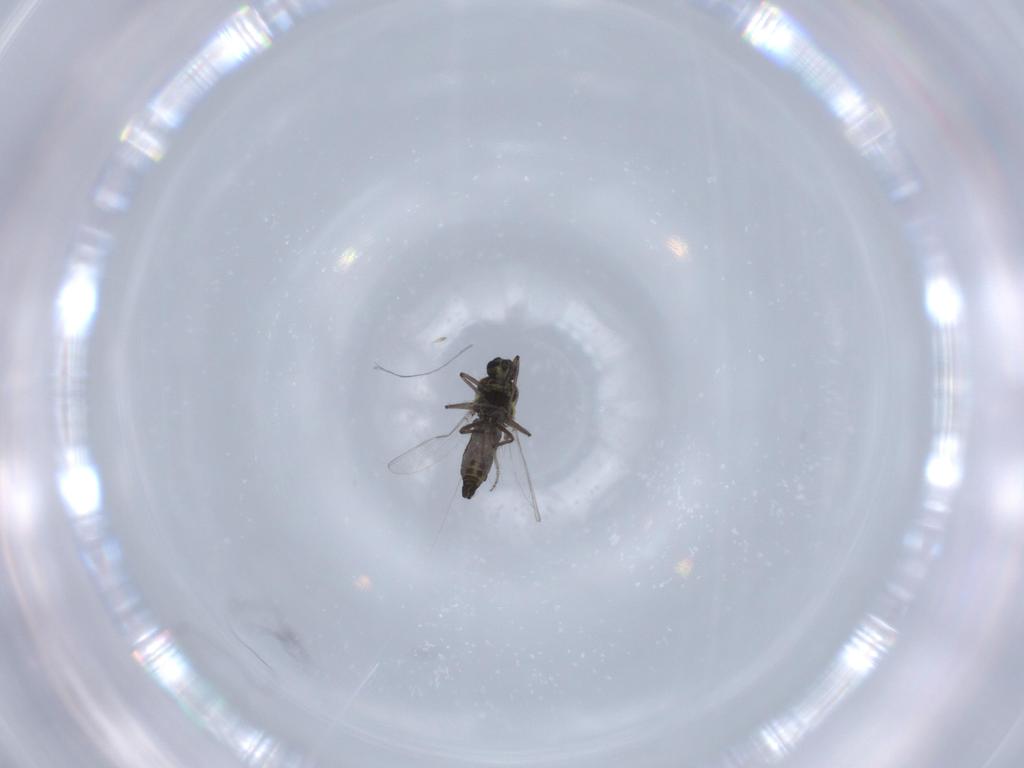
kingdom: Animalia
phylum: Arthropoda
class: Insecta
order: Diptera
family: Ceratopogonidae
